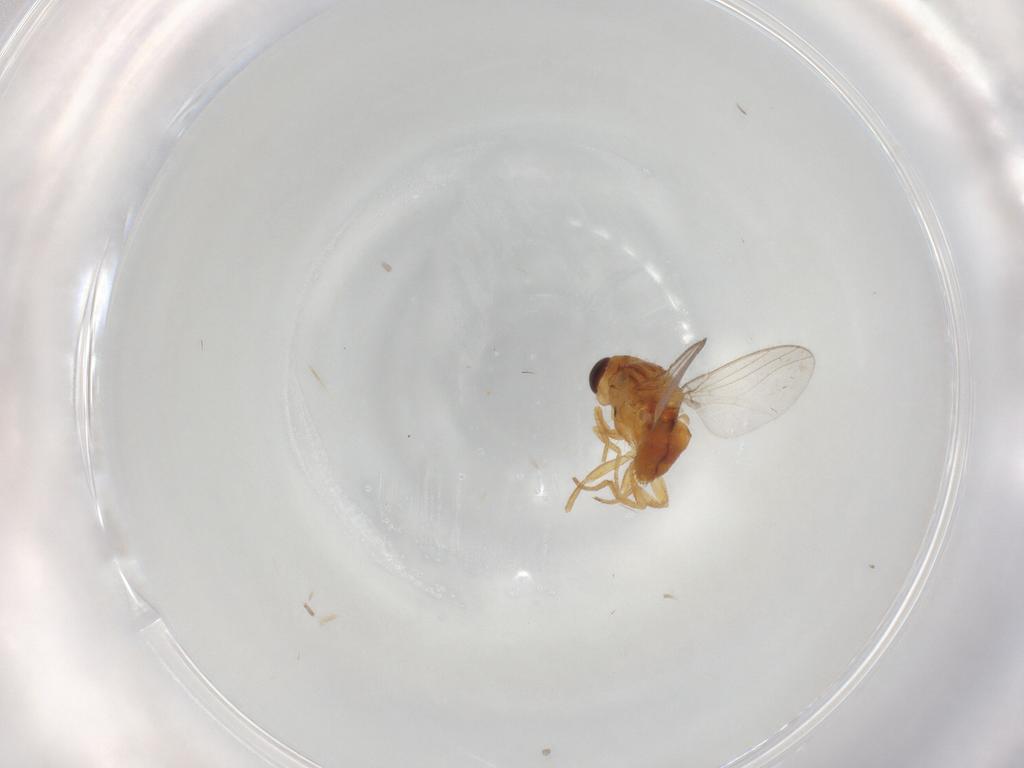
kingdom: Animalia
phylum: Arthropoda
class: Insecta
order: Diptera
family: Chloropidae
